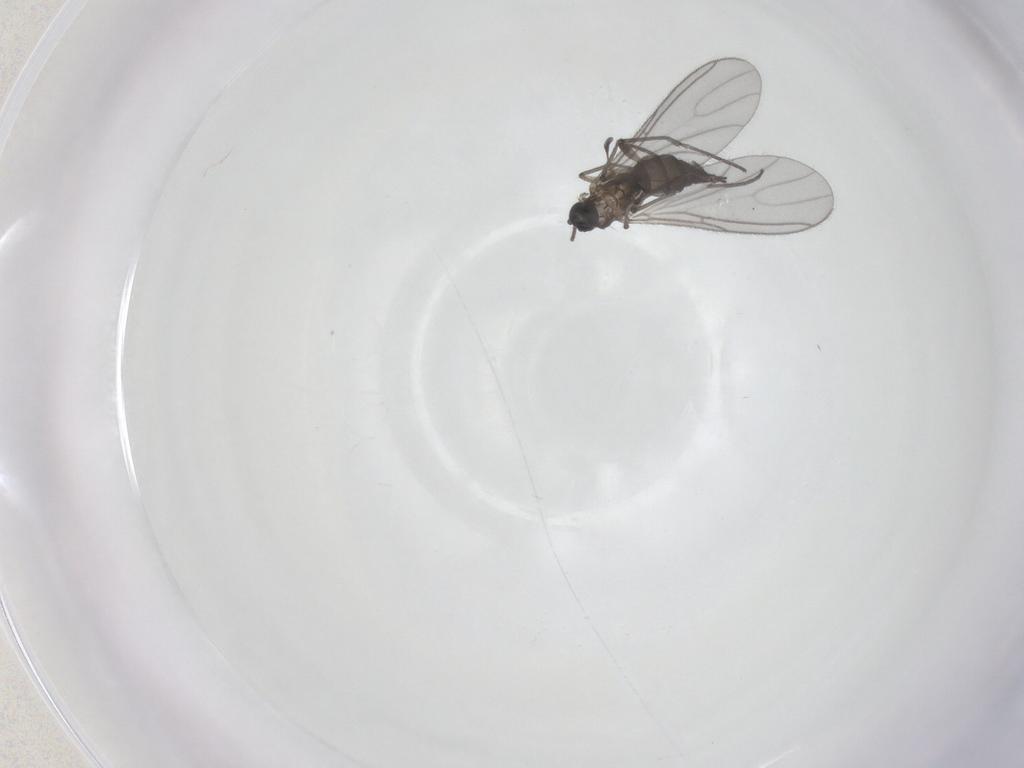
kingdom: Animalia
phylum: Arthropoda
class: Insecta
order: Diptera
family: Sciaridae
